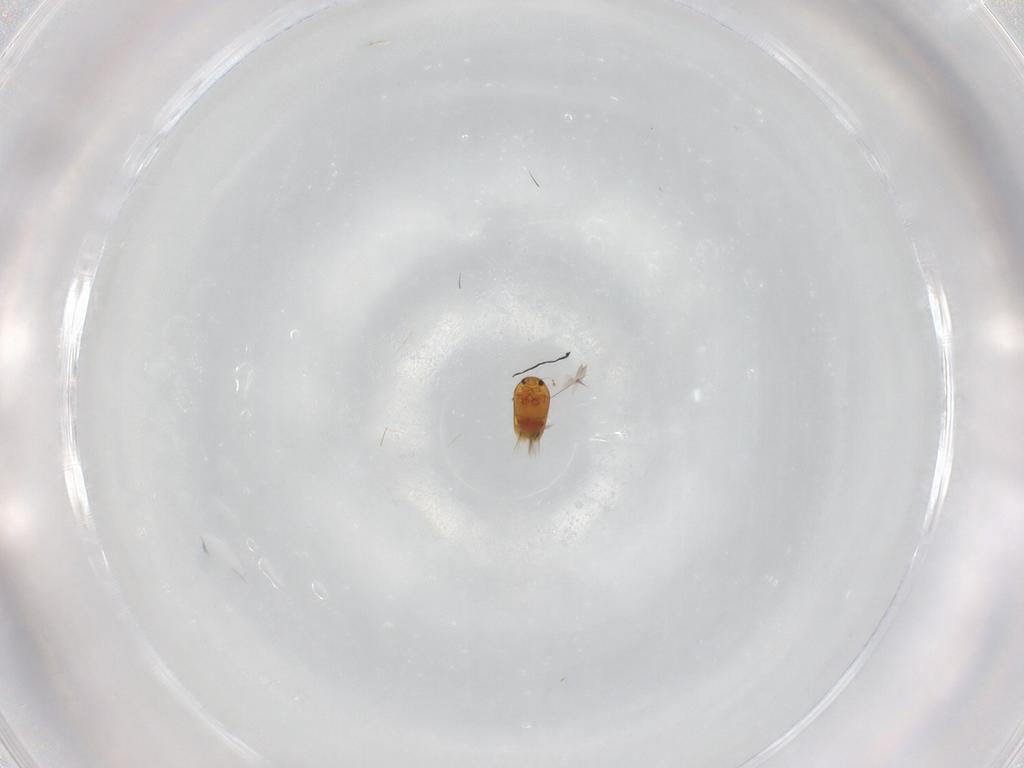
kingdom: Animalia
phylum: Arthropoda
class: Insecta
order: Coleoptera
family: Ptiliidae
